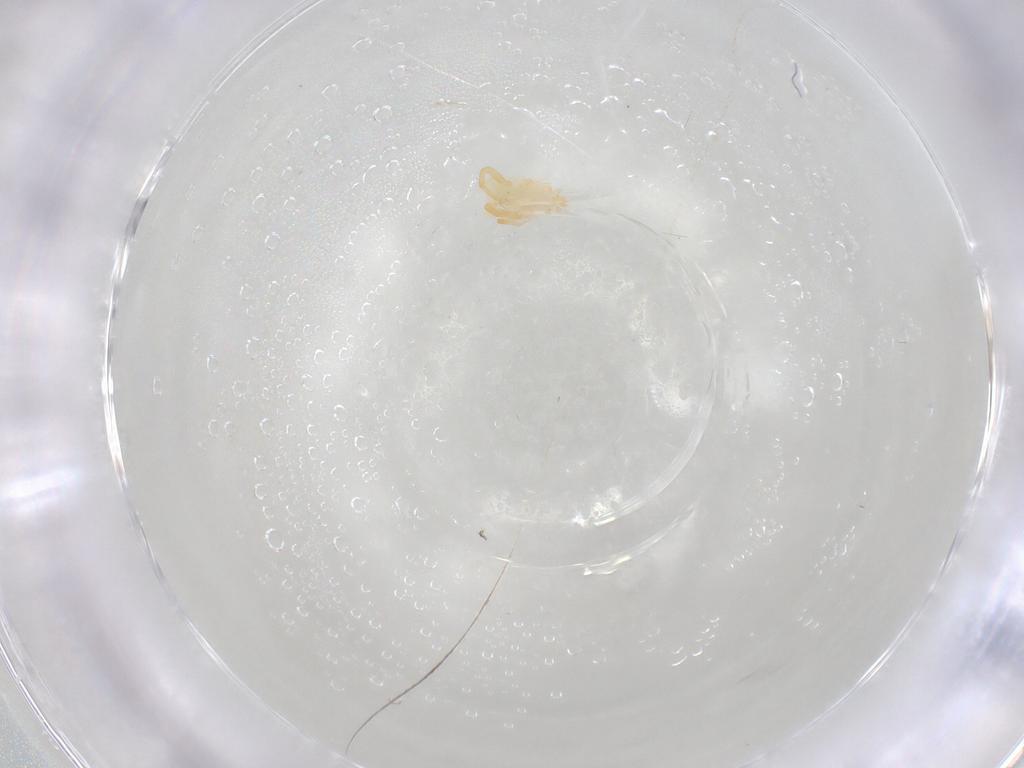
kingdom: Animalia
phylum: Arthropoda
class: Arachnida
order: Trombidiformes
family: Eupodidae
